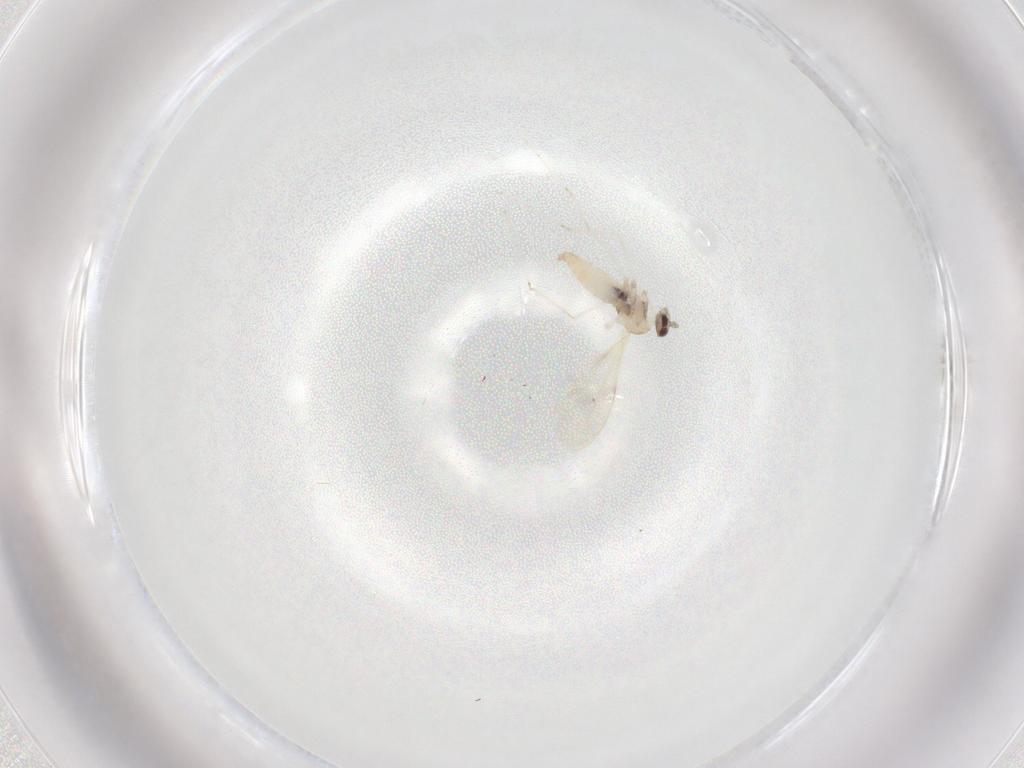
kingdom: Animalia
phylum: Arthropoda
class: Insecta
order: Diptera
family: Cecidomyiidae
